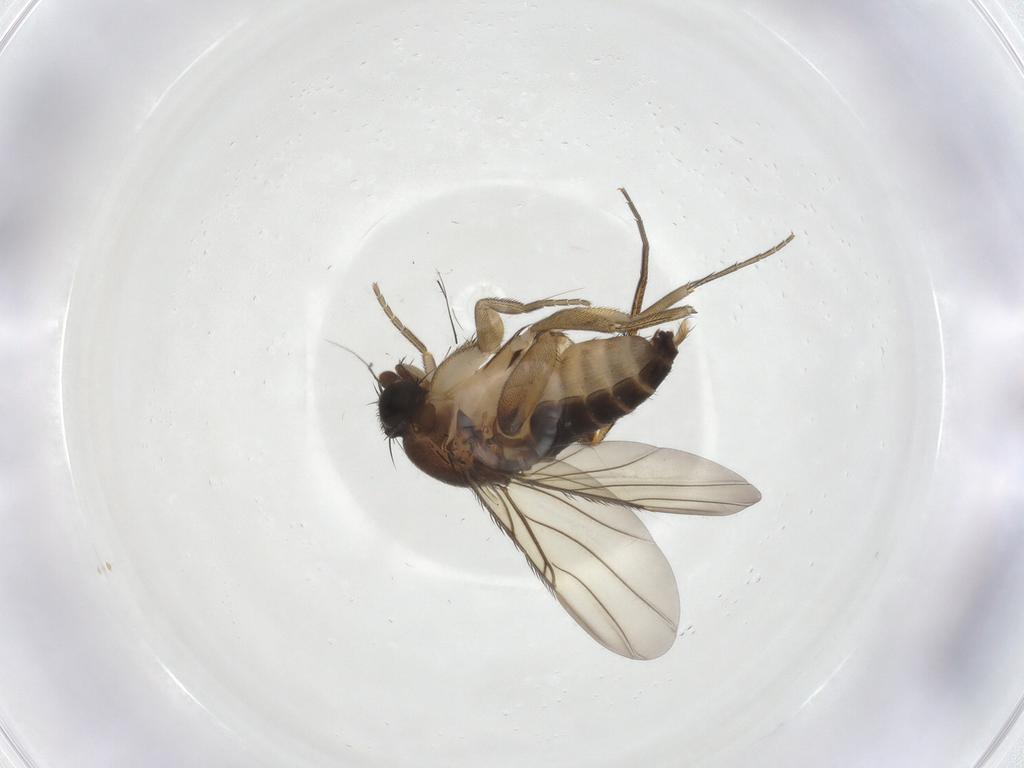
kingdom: Animalia
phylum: Arthropoda
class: Insecta
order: Diptera
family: Phoridae
